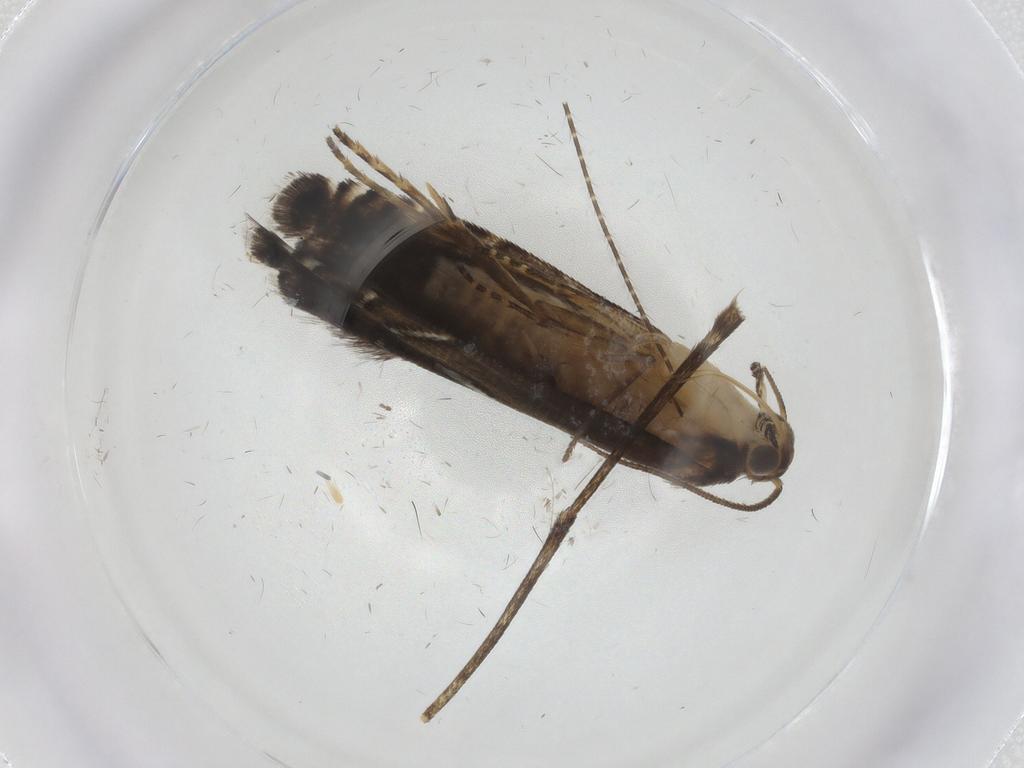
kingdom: Animalia
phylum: Arthropoda
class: Insecta
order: Lepidoptera
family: Glyphipterigidae
